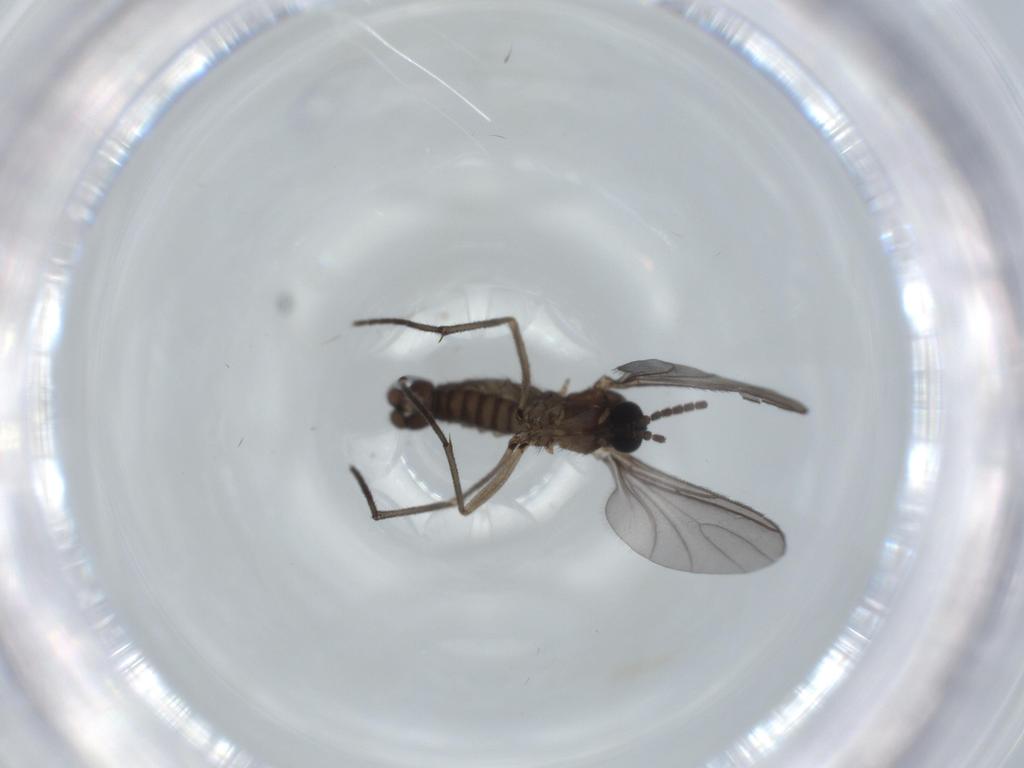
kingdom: Animalia
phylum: Arthropoda
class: Insecta
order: Diptera
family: Sciaridae
